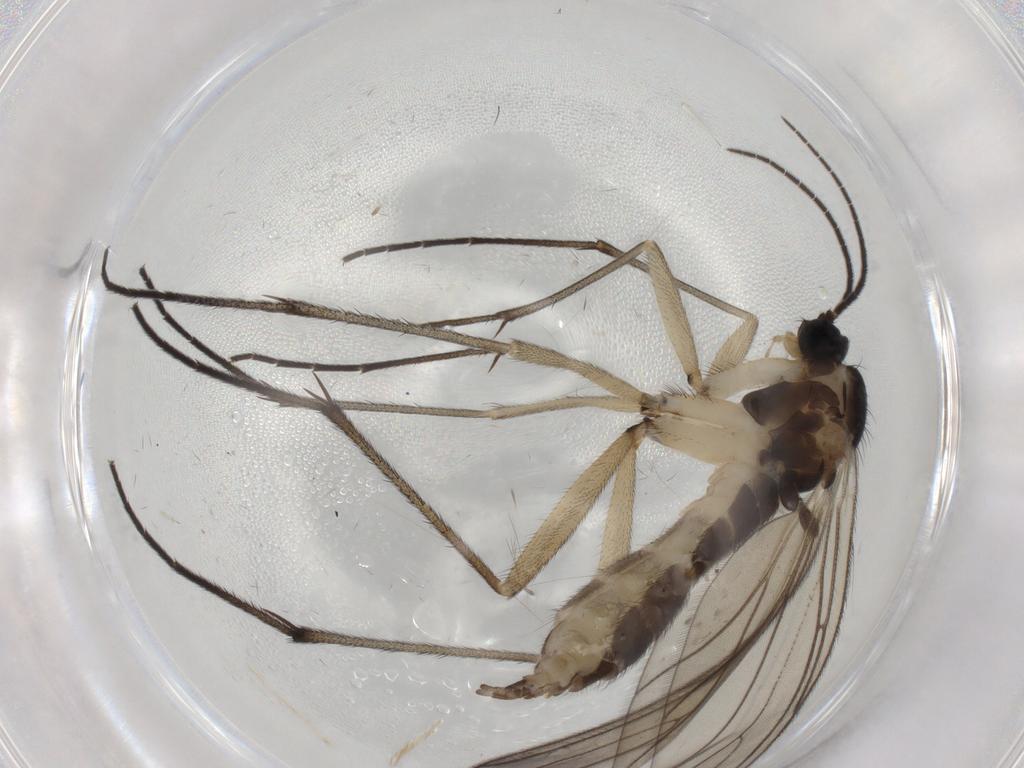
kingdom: Animalia
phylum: Arthropoda
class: Insecta
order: Diptera
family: Sciaridae
